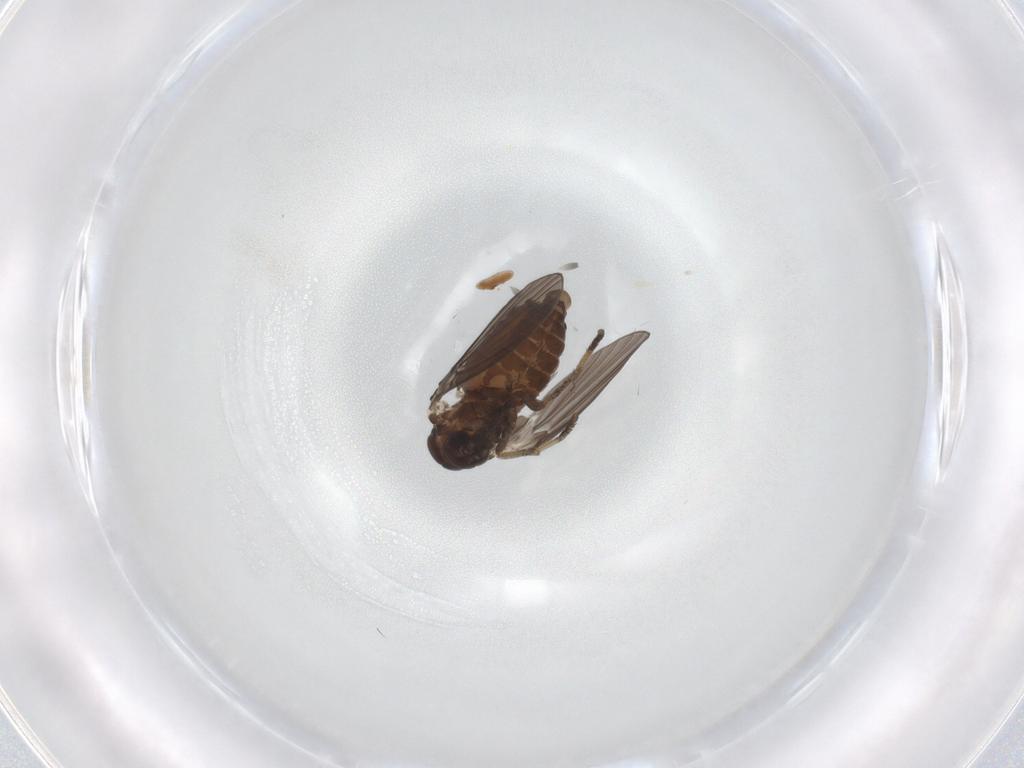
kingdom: Animalia
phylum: Arthropoda
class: Insecta
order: Diptera
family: Psychodidae
